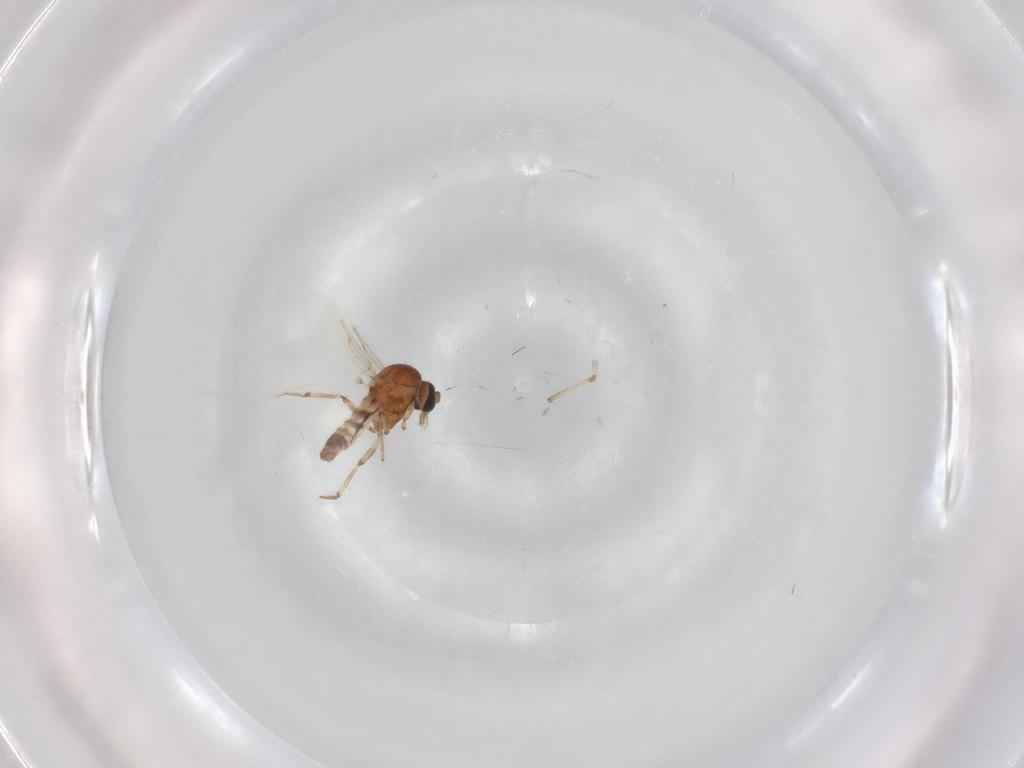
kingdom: Animalia
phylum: Arthropoda
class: Insecta
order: Diptera
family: Ceratopogonidae
